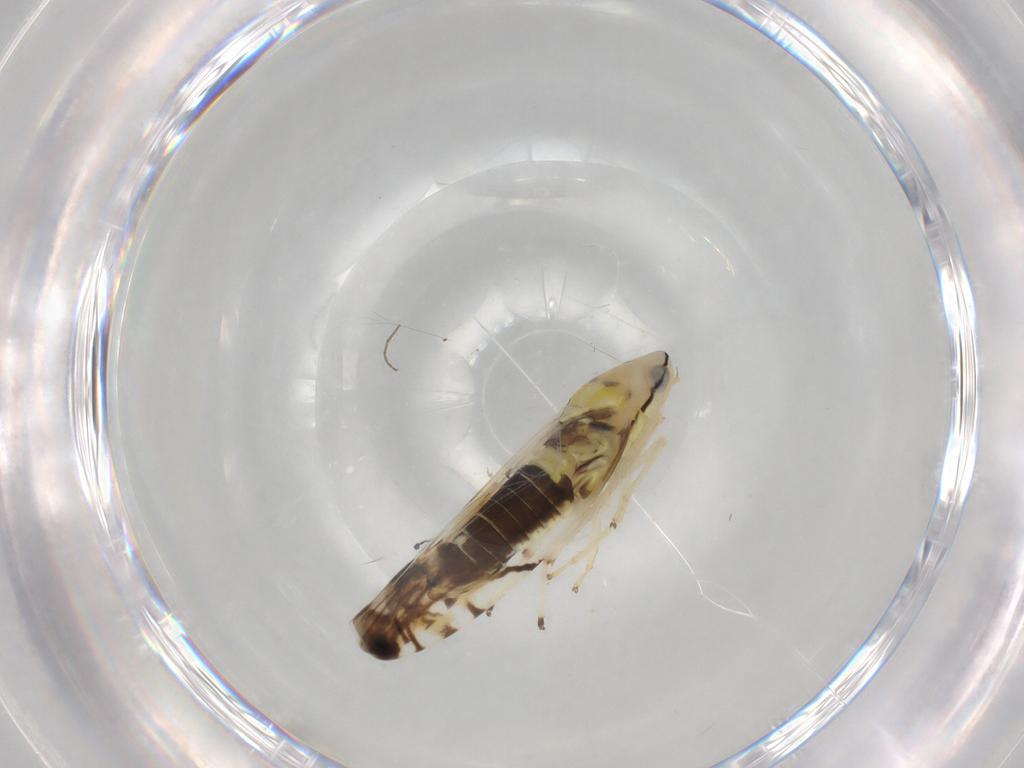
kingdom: Animalia
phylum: Arthropoda
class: Insecta
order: Hemiptera
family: Cicadellidae
